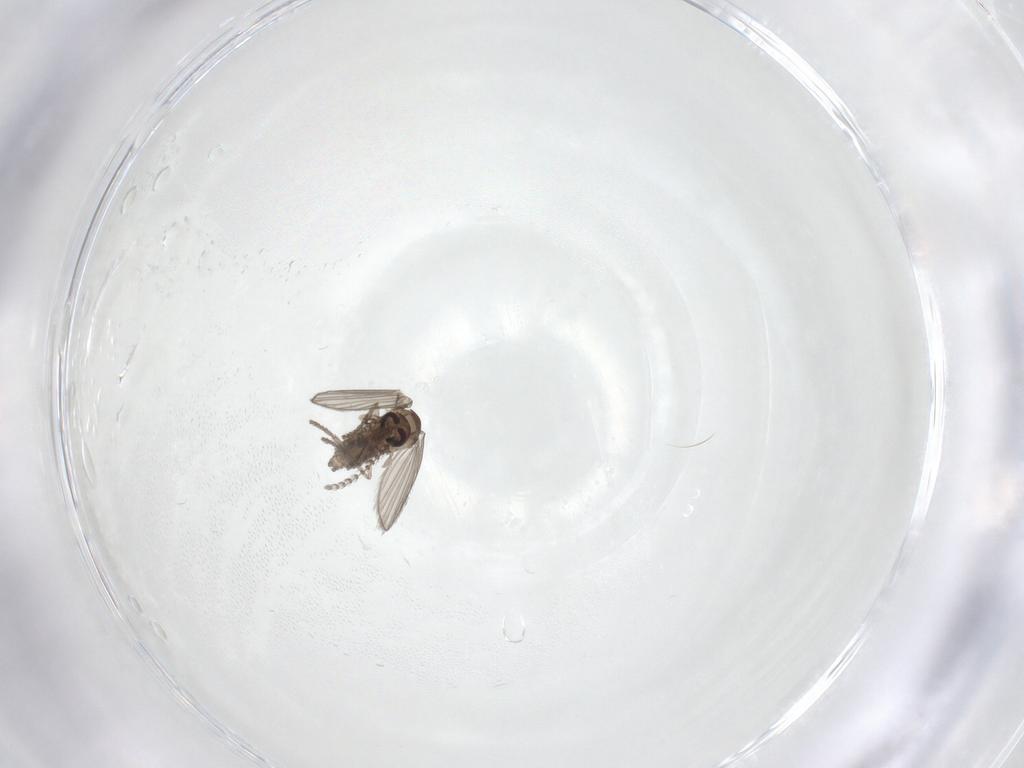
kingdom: Animalia
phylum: Arthropoda
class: Insecta
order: Diptera
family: Psychodidae
